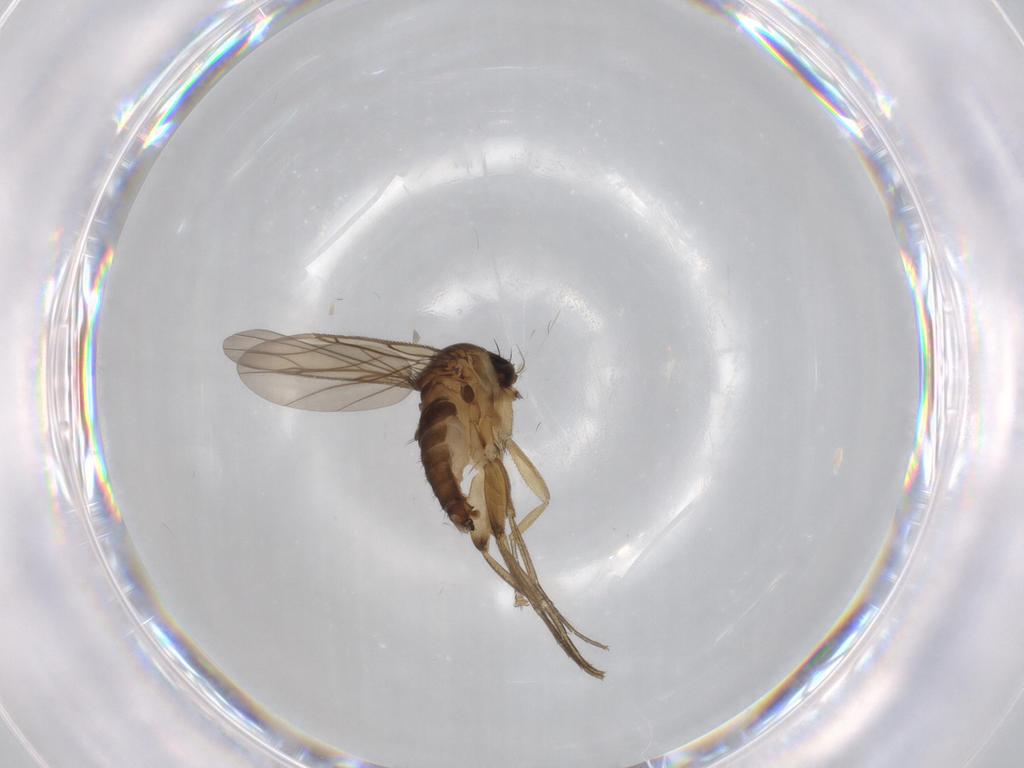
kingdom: Animalia
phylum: Arthropoda
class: Insecta
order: Diptera
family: Phoridae
